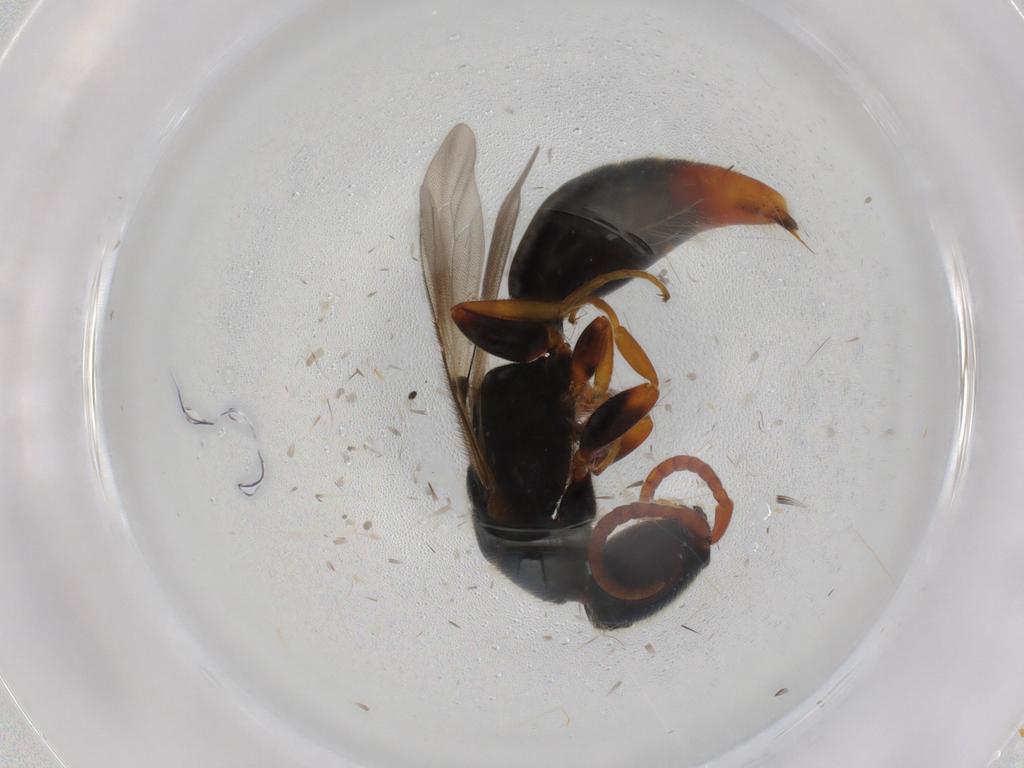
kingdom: Animalia
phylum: Arthropoda
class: Insecta
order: Hymenoptera
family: Bethylidae
